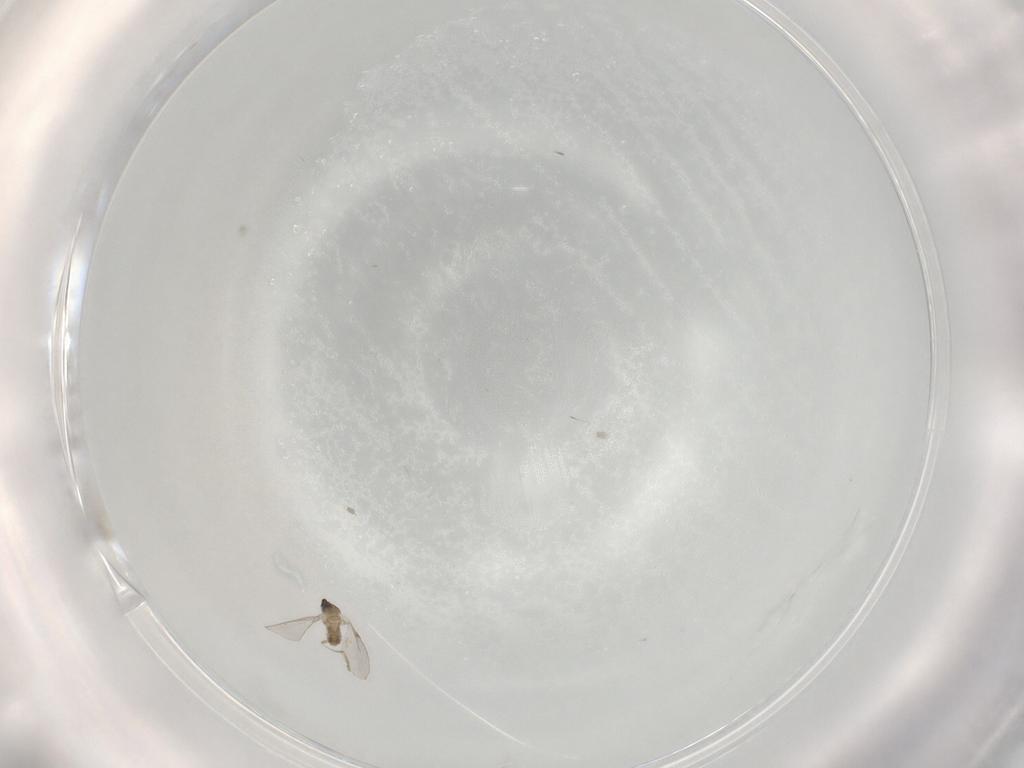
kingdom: Animalia
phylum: Arthropoda
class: Insecta
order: Diptera
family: Cecidomyiidae
